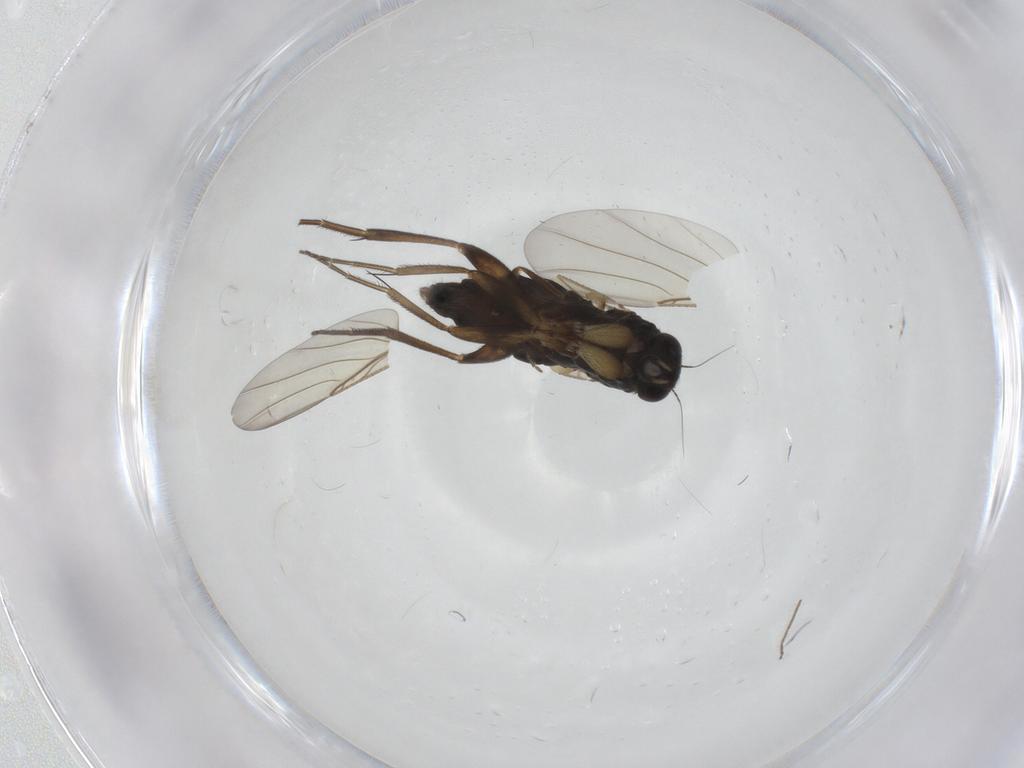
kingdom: Animalia
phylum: Arthropoda
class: Insecta
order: Diptera
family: Phoridae
